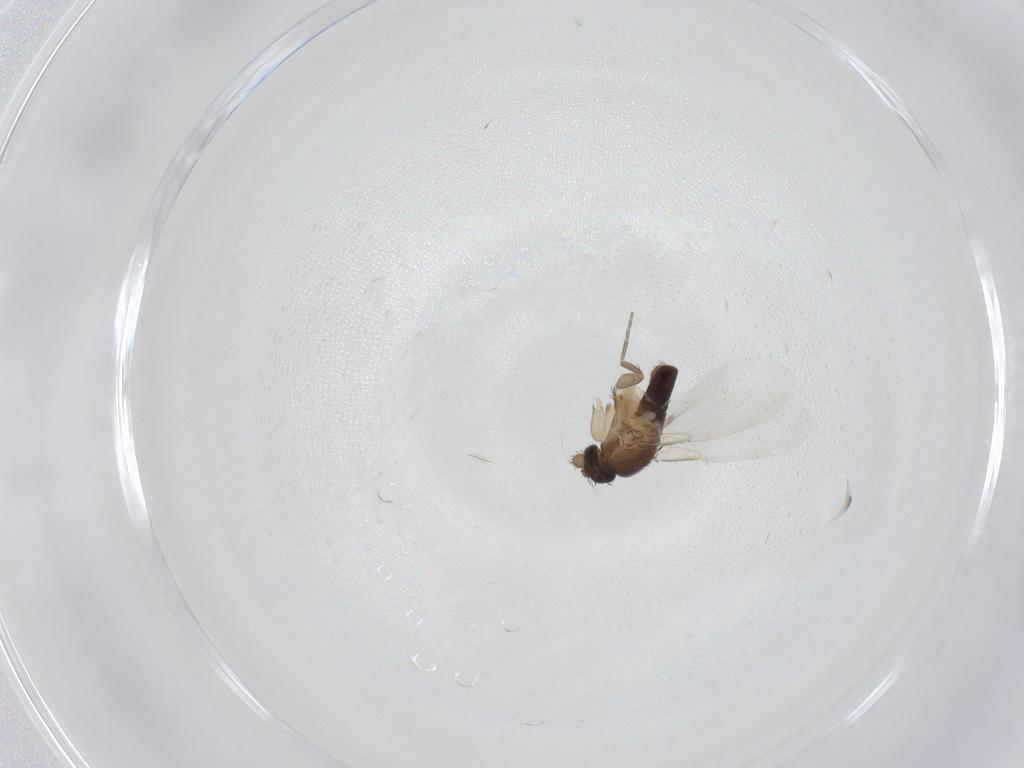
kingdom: Animalia
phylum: Arthropoda
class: Insecta
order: Diptera
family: Phoridae
